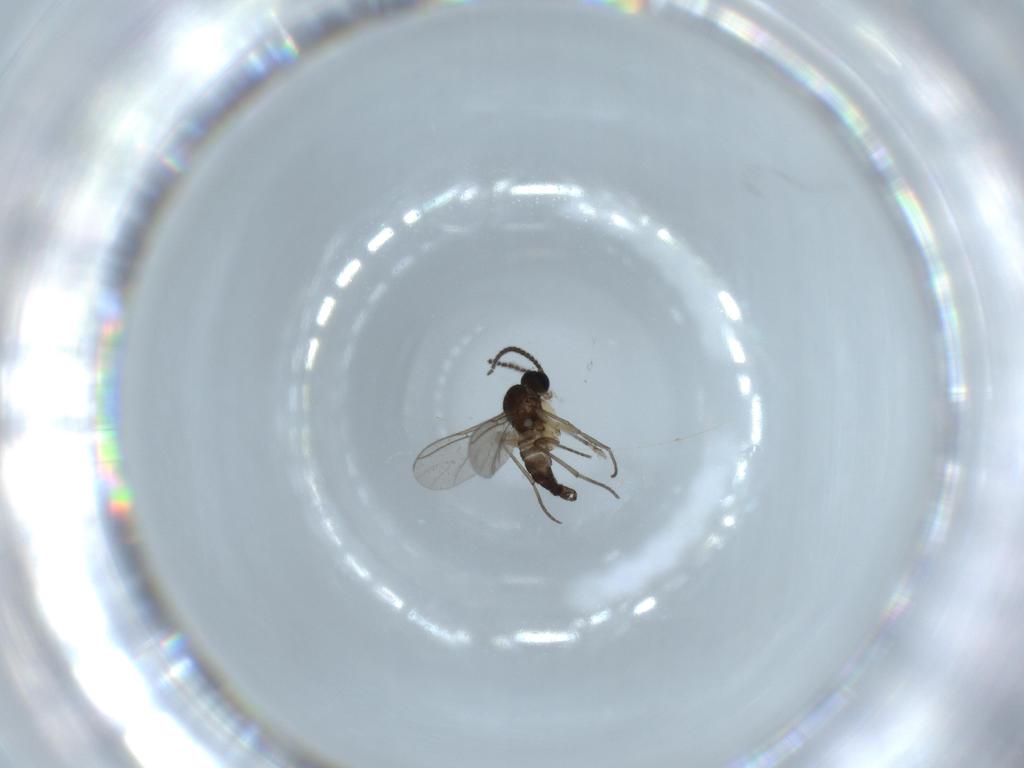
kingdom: Animalia
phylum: Arthropoda
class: Insecta
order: Diptera
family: Sciaridae
